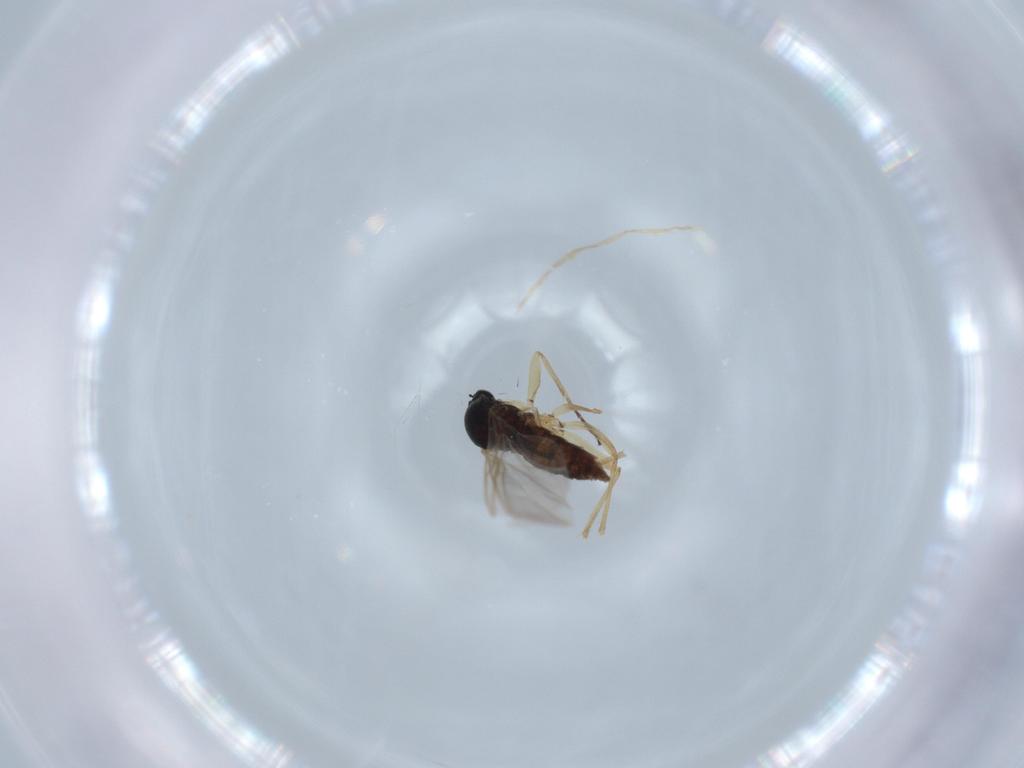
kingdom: Animalia
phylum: Arthropoda
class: Insecta
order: Diptera
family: Sciaridae
